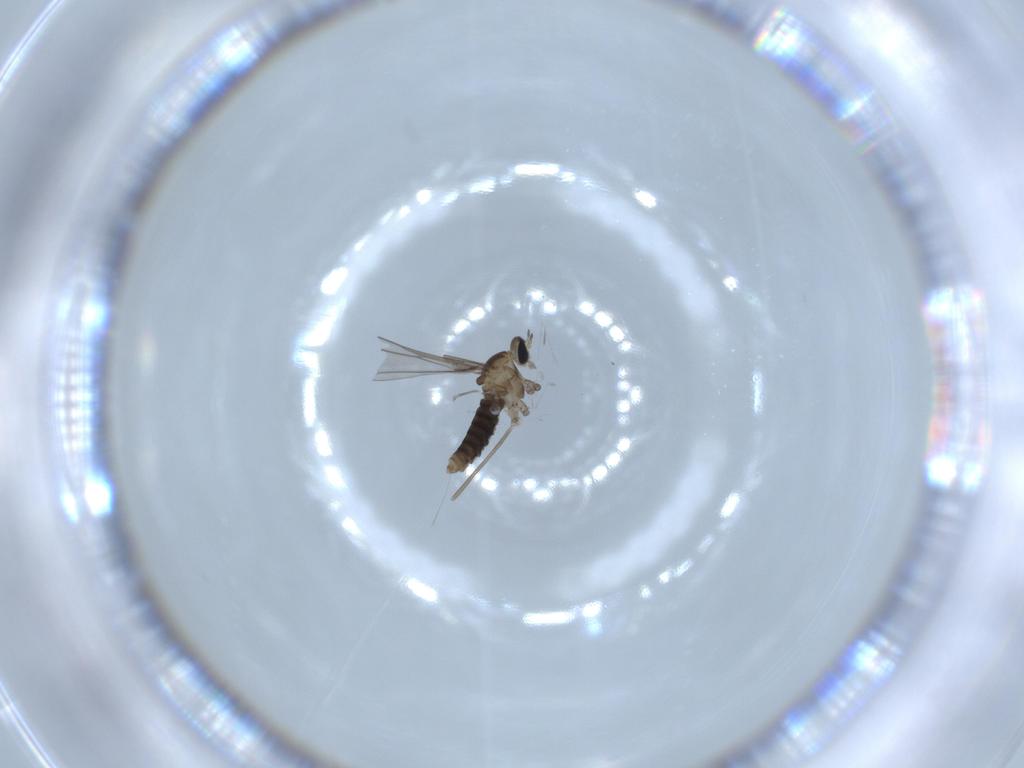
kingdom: Animalia
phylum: Arthropoda
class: Insecta
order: Diptera
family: Cecidomyiidae
